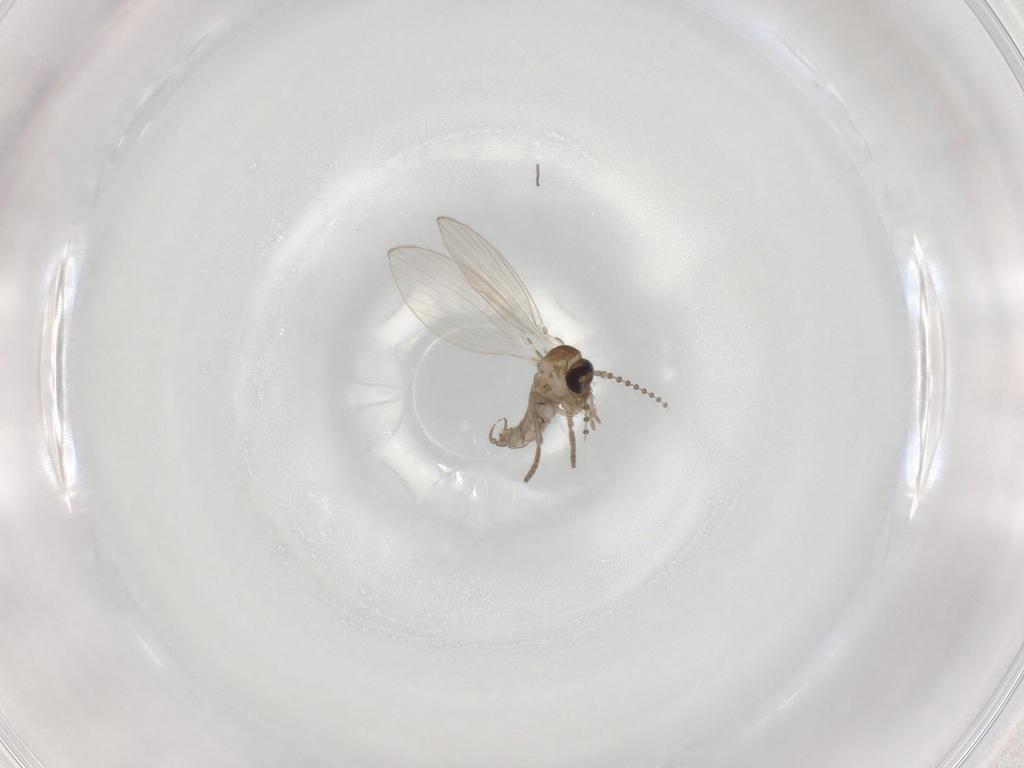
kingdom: Animalia
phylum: Arthropoda
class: Insecta
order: Diptera
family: Psychodidae
